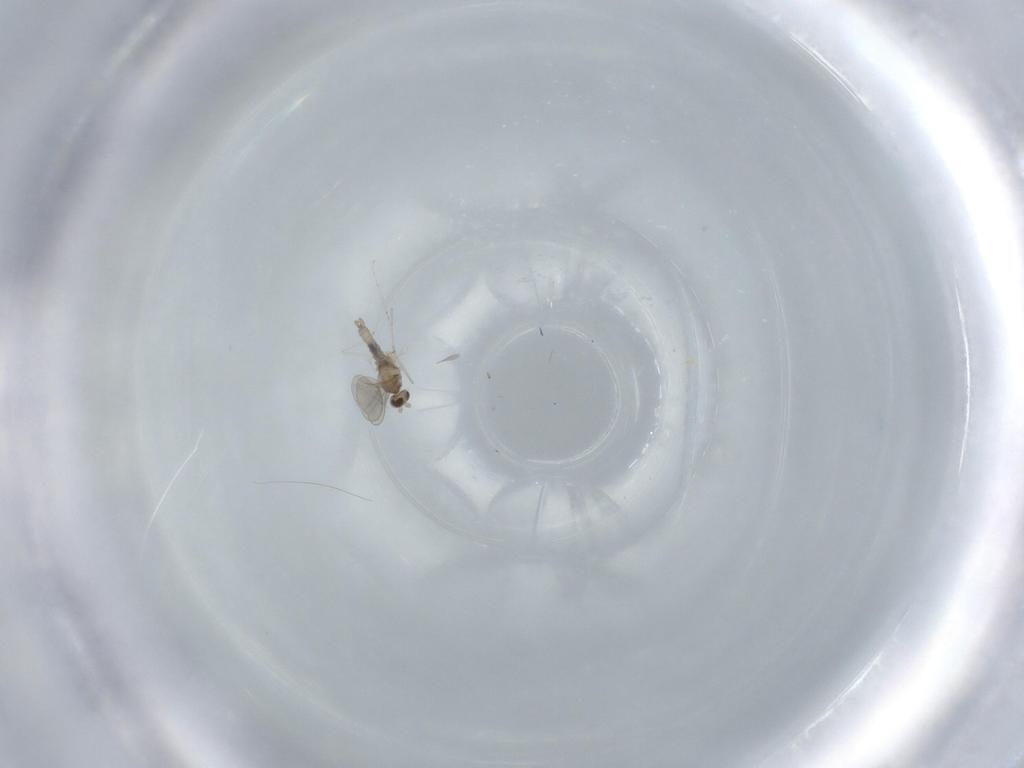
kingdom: Animalia
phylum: Arthropoda
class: Insecta
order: Diptera
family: Cecidomyiidae
